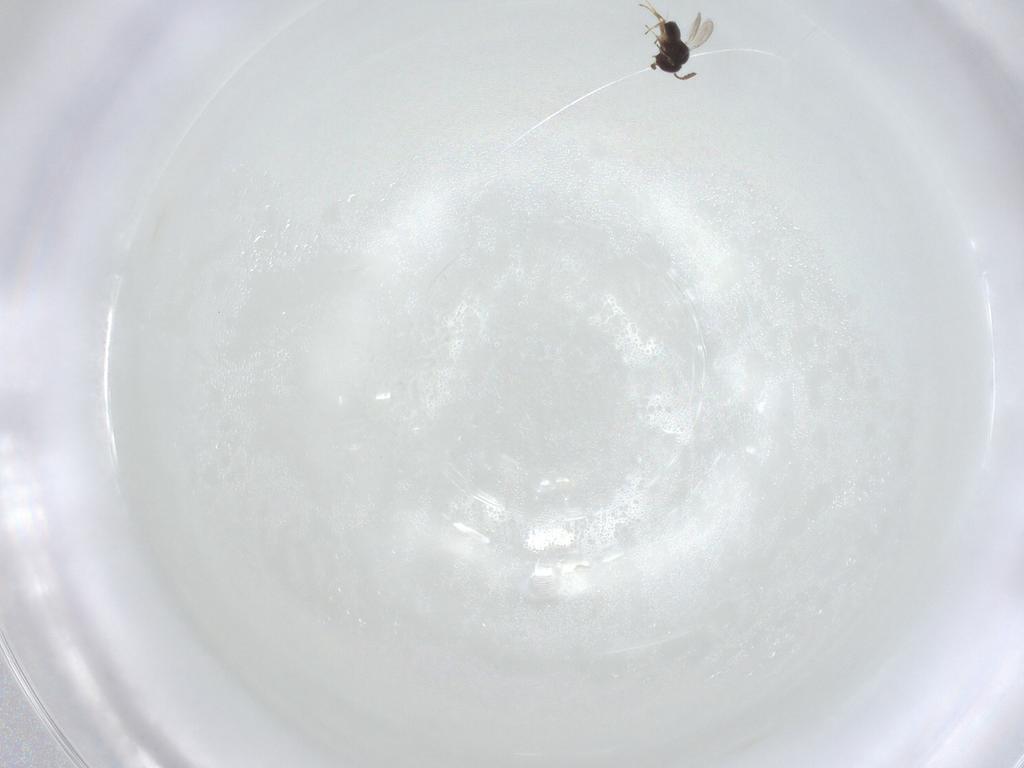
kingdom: Animalia
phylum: Arthropoda
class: Insecta
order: Hymenoptera
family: Scelionidae
